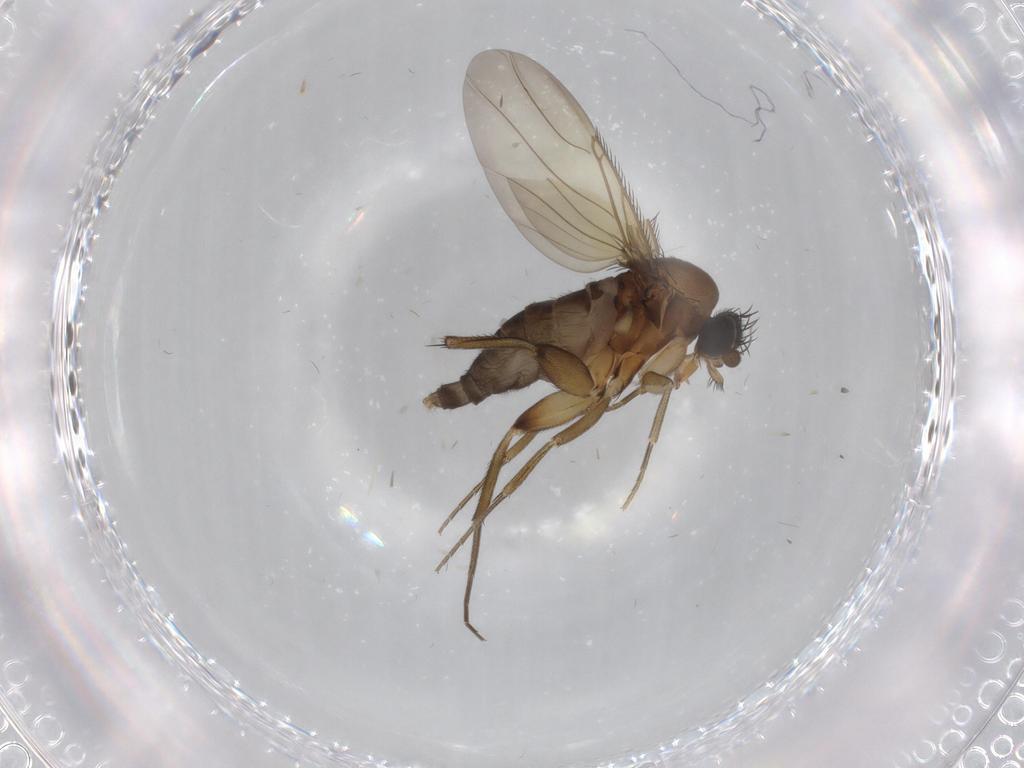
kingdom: Animalia
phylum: Arthropoda
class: Insecta
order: Diptera
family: Phoridae
